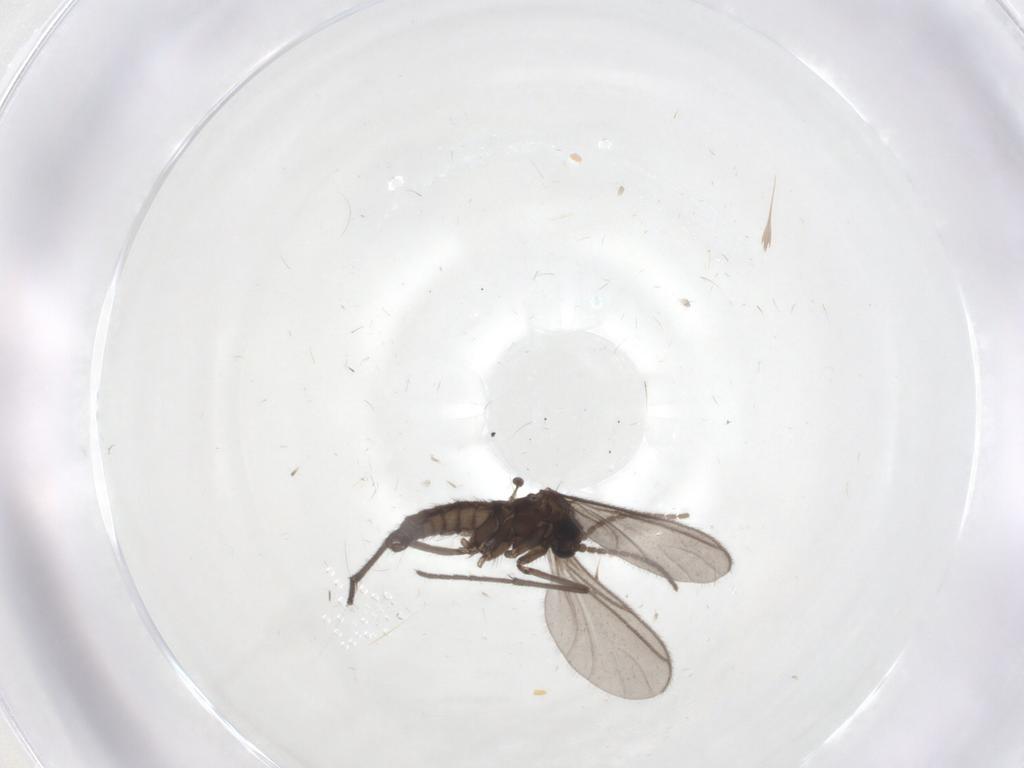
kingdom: Animalia
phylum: Arthropoda
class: Insecta
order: Diptera
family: Sciaridae
